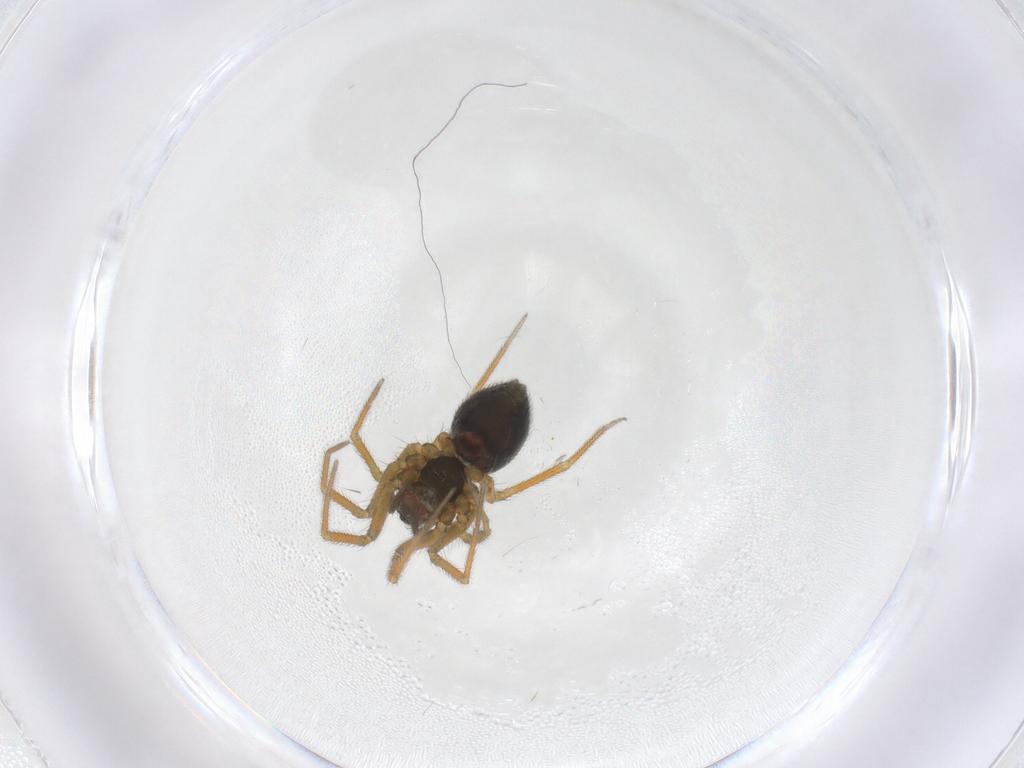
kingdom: Animalia
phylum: Arthropoda
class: Arachnida
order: Araneae
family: Linyphiidae
